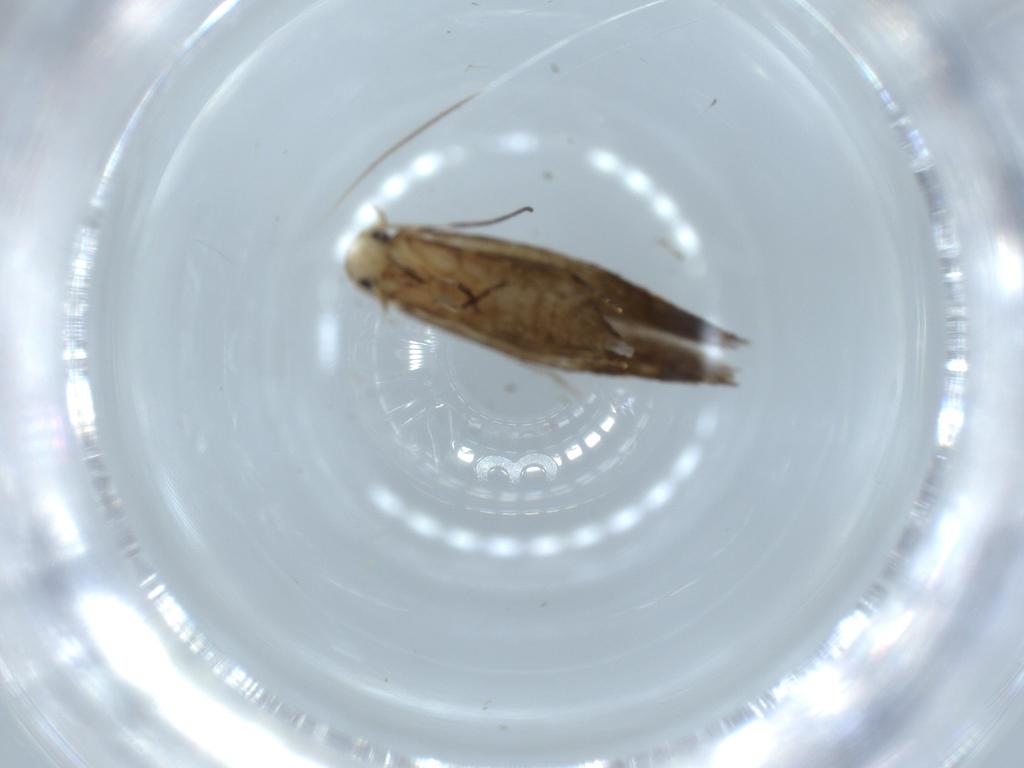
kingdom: Animalia
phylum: Arthropoda
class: Insecta
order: Lepidoptera
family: Tineidae
